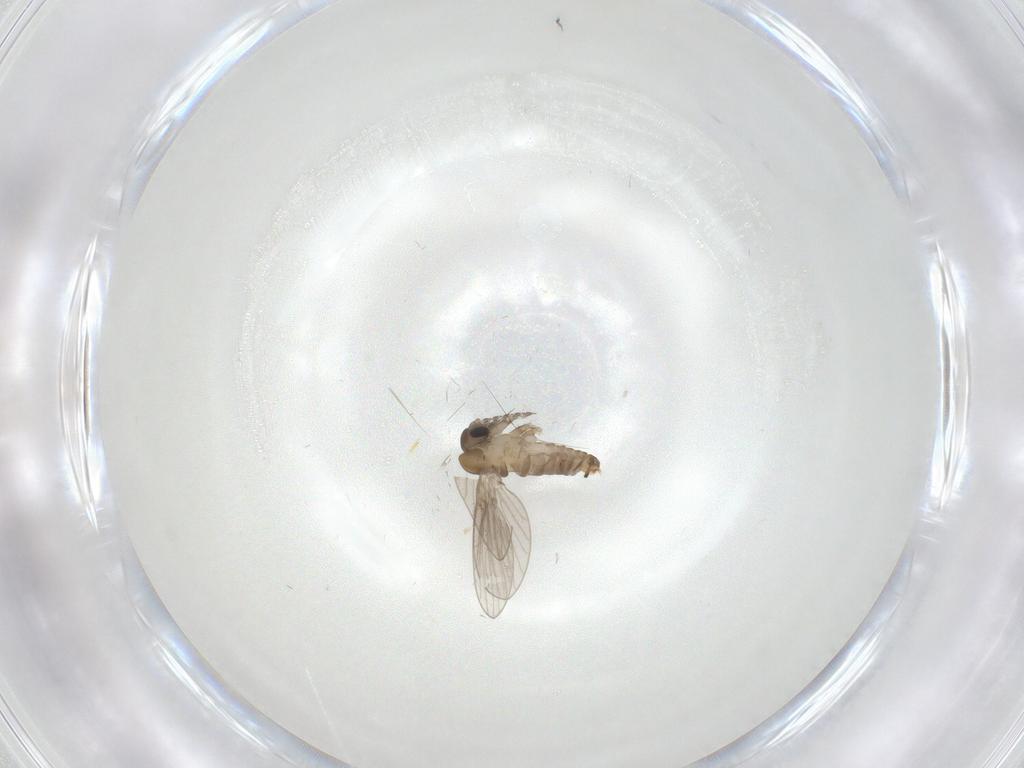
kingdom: Animalia
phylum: Arthropoda
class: Insecta
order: Diptera
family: Psychodidae
